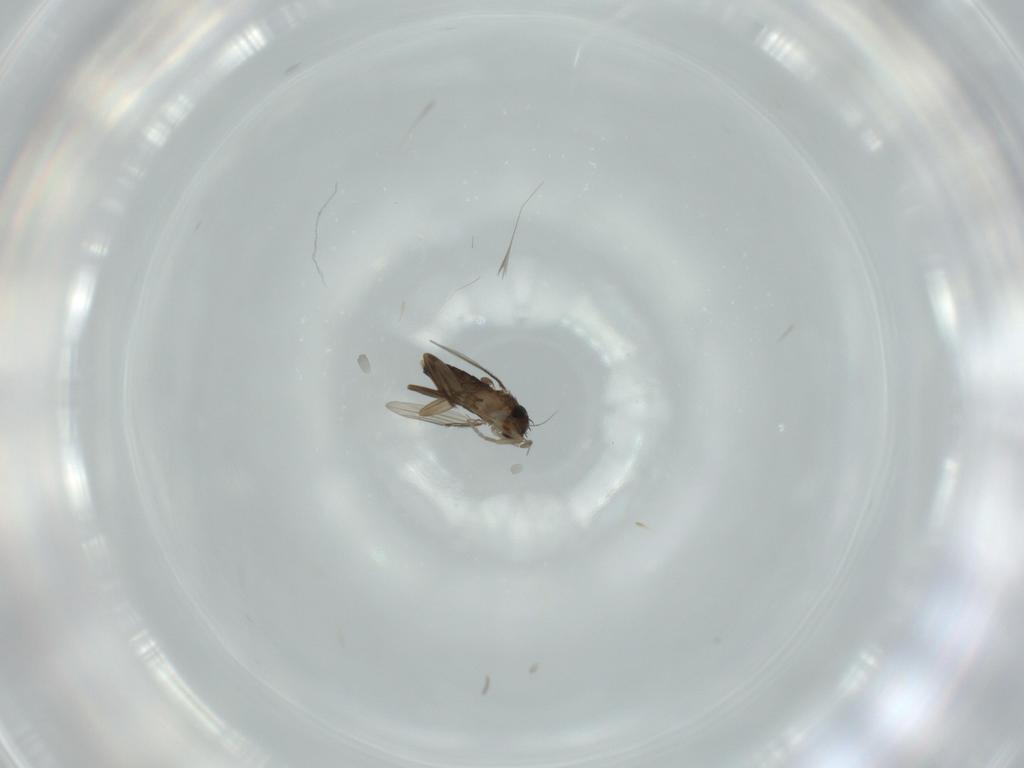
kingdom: Animalia
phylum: Arthropoda
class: Insecta
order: Diptera
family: Phoridae
